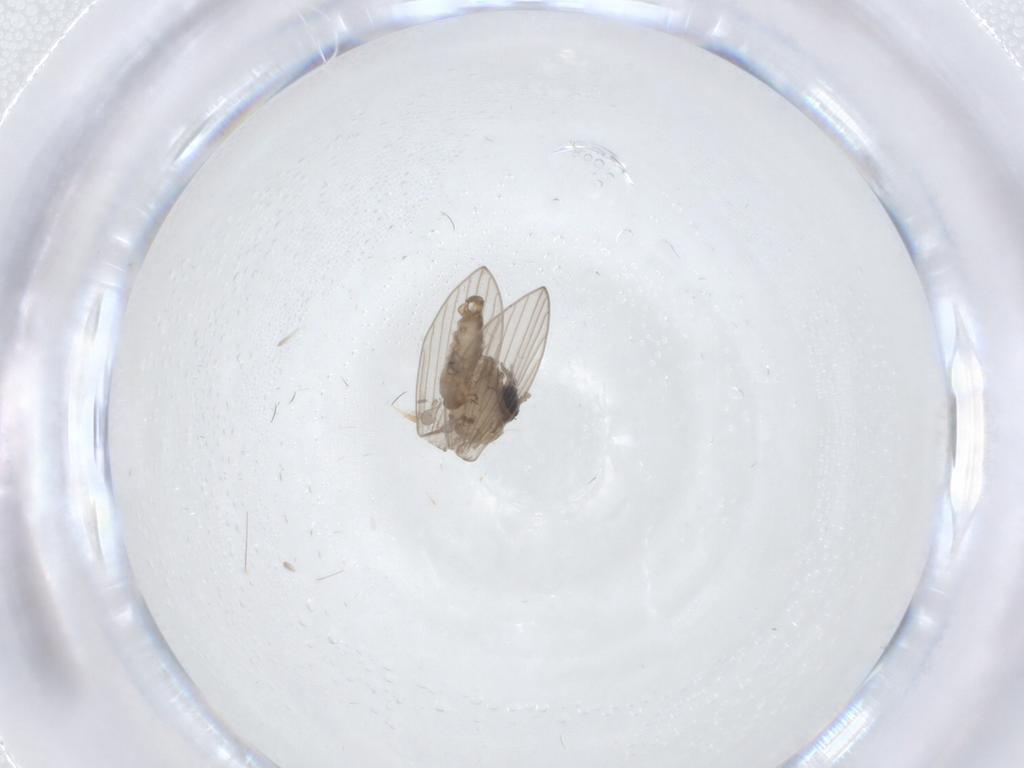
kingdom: Animalia
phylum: Arthropoda
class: Insecta
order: Diptera
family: Psychodidae
